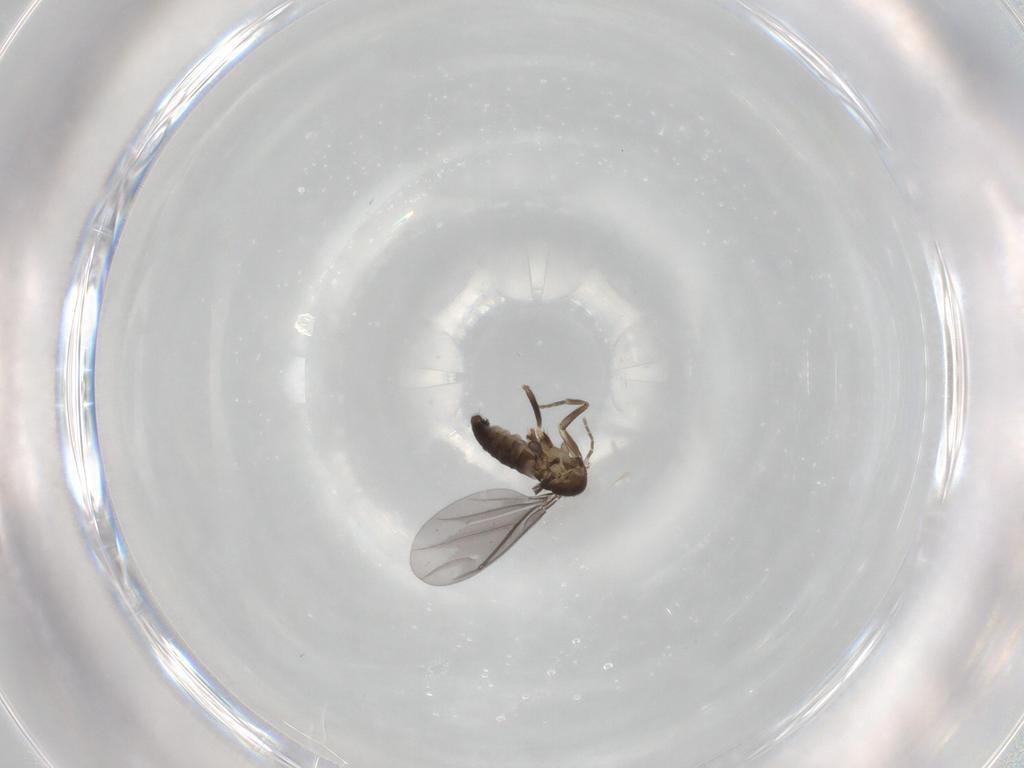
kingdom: Animalia
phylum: Arthropoda
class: Insecta
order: Diptera
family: Phoridae
